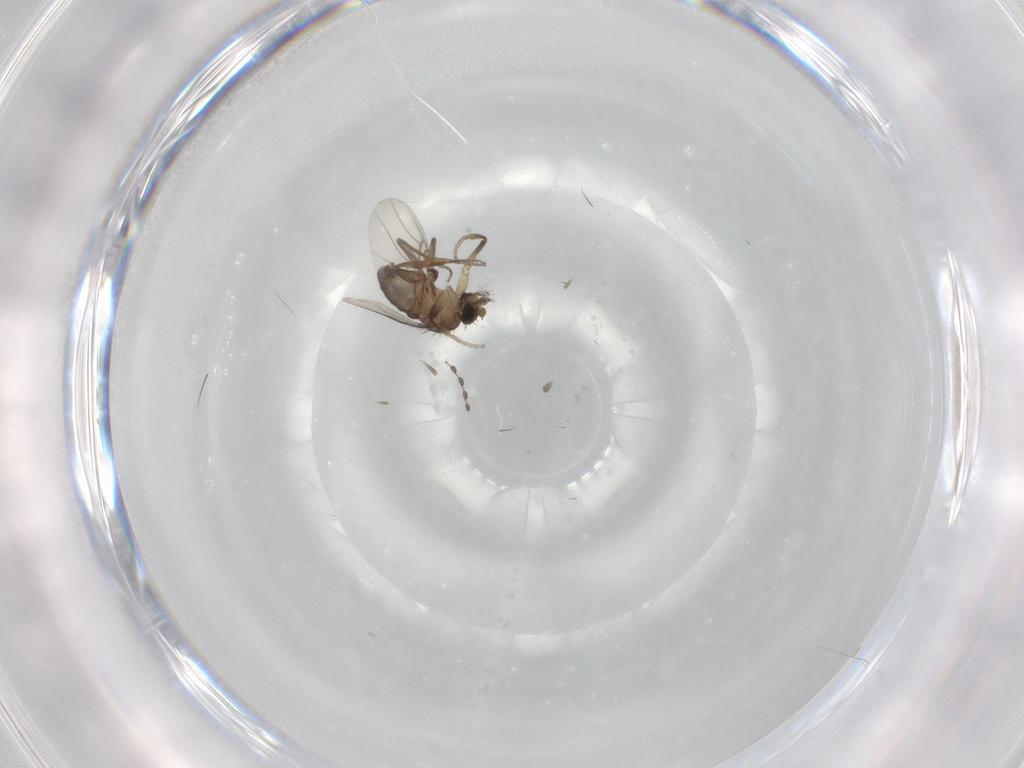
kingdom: Animalia
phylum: Arthropoda
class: Insecta
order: Diptera
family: Phoridae
